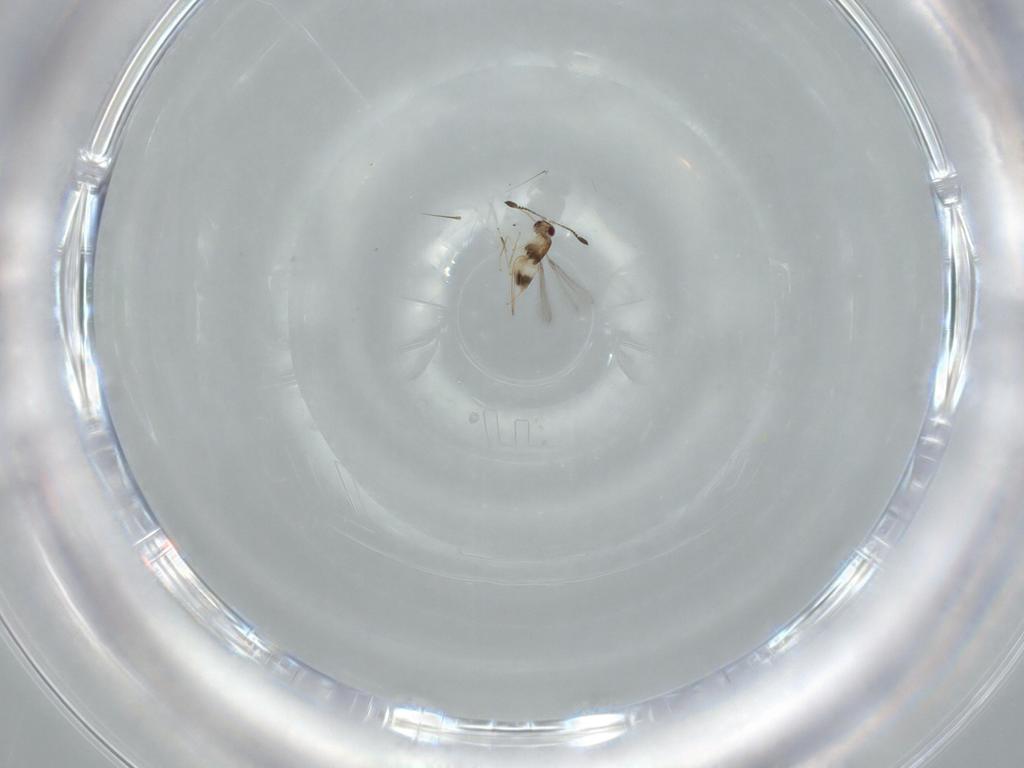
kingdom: Animalia
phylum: Arthropoda
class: Insecta
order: Hymenoptera
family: Mymaridae
